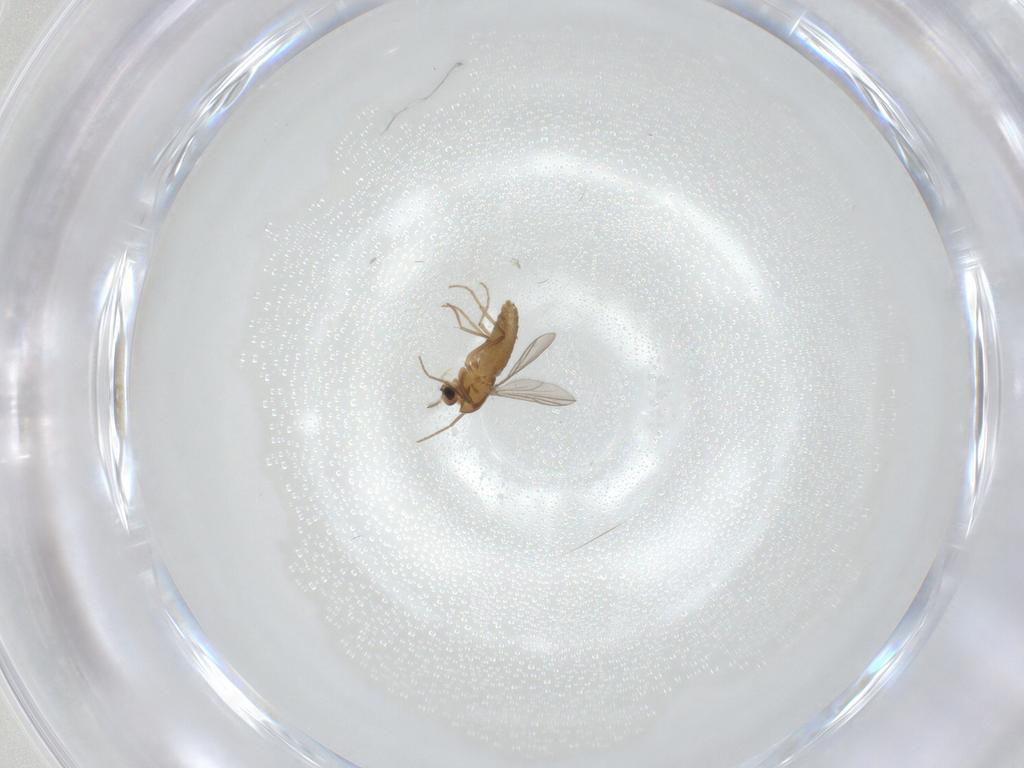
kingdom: Animalia
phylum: Arthropoda
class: Insecta
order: Diptera
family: Chironomidae
